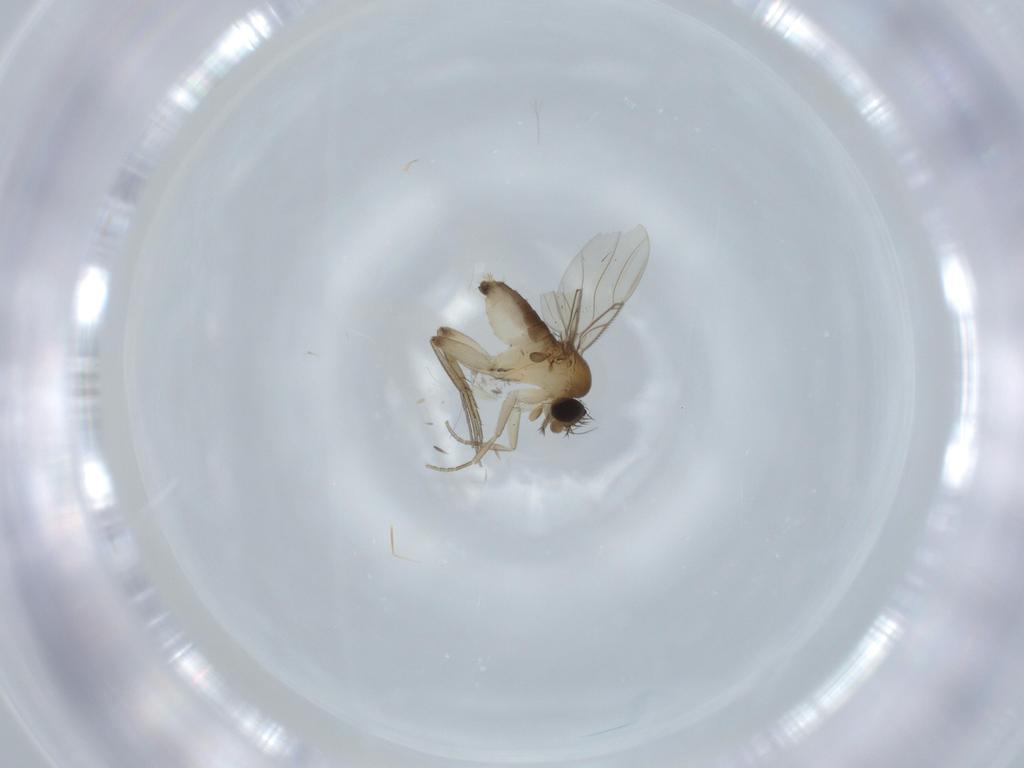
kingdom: Animalia
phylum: Arthropoda
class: Insecta
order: Diptera
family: Phoridae
